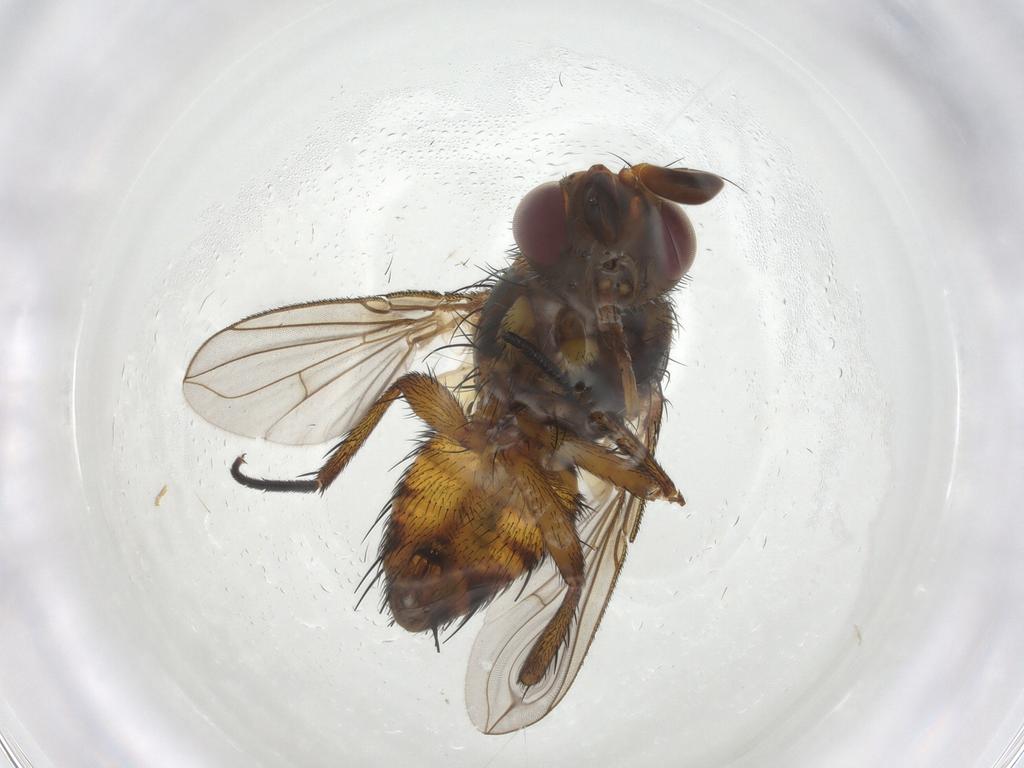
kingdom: Animalia
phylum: Arthropoda
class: Insecta
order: Diptera
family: Tachinidae
